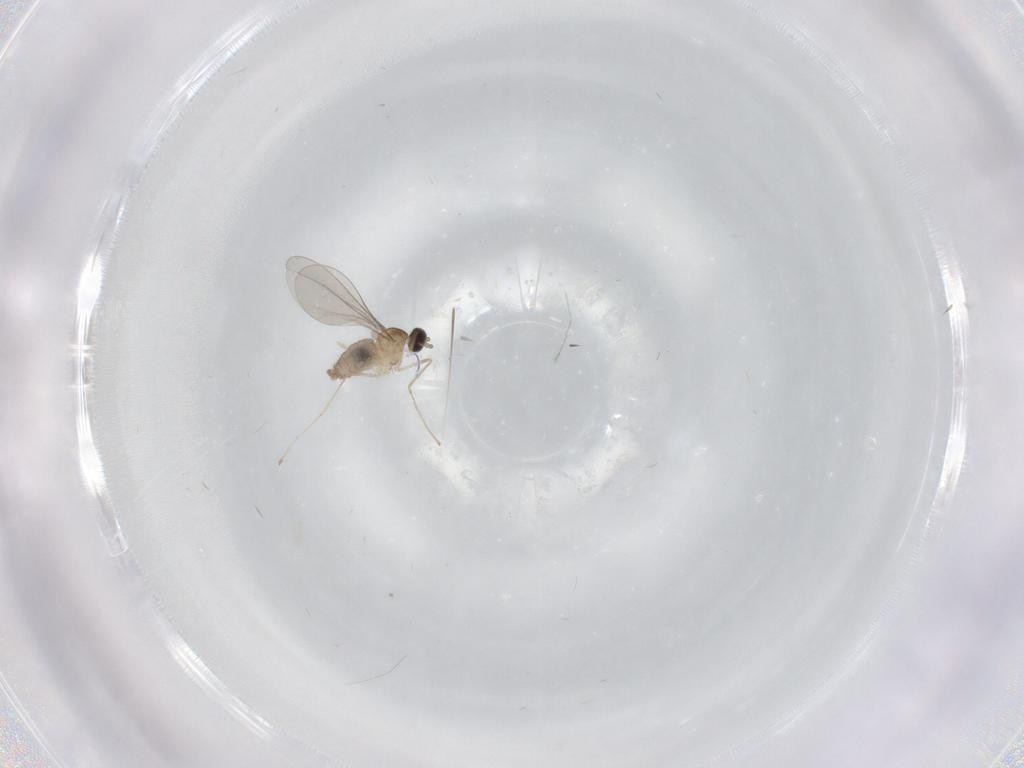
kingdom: Animalia
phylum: Arthropoda
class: Insecta
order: Diptera
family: Cecidomyiidae
